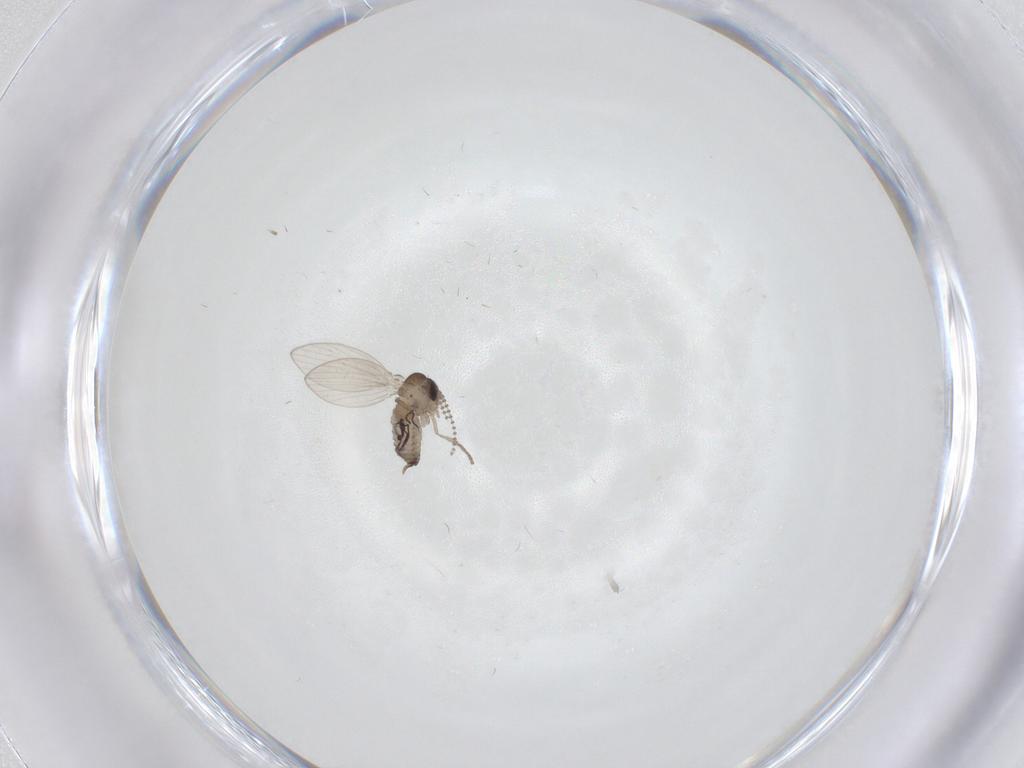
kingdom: Animalia
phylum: Arthropoda
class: Insecta
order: Diptera
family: Psychodidae
